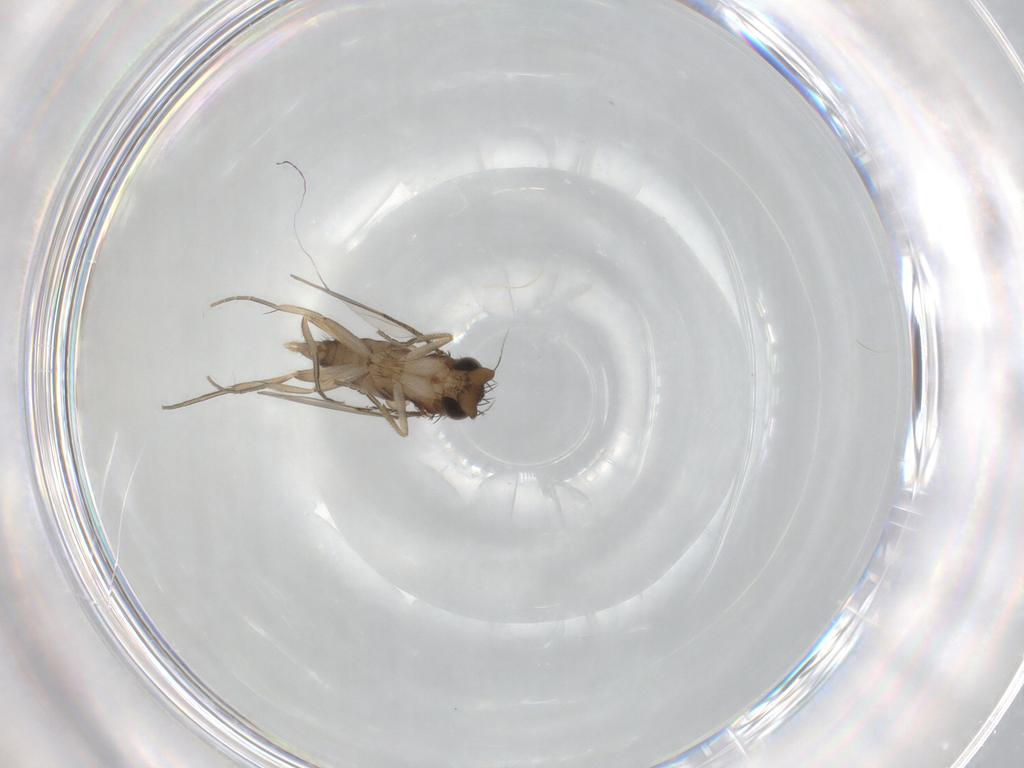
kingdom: Animalia
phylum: Arthropoda
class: Insecta
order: Diptera
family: Phoridae
